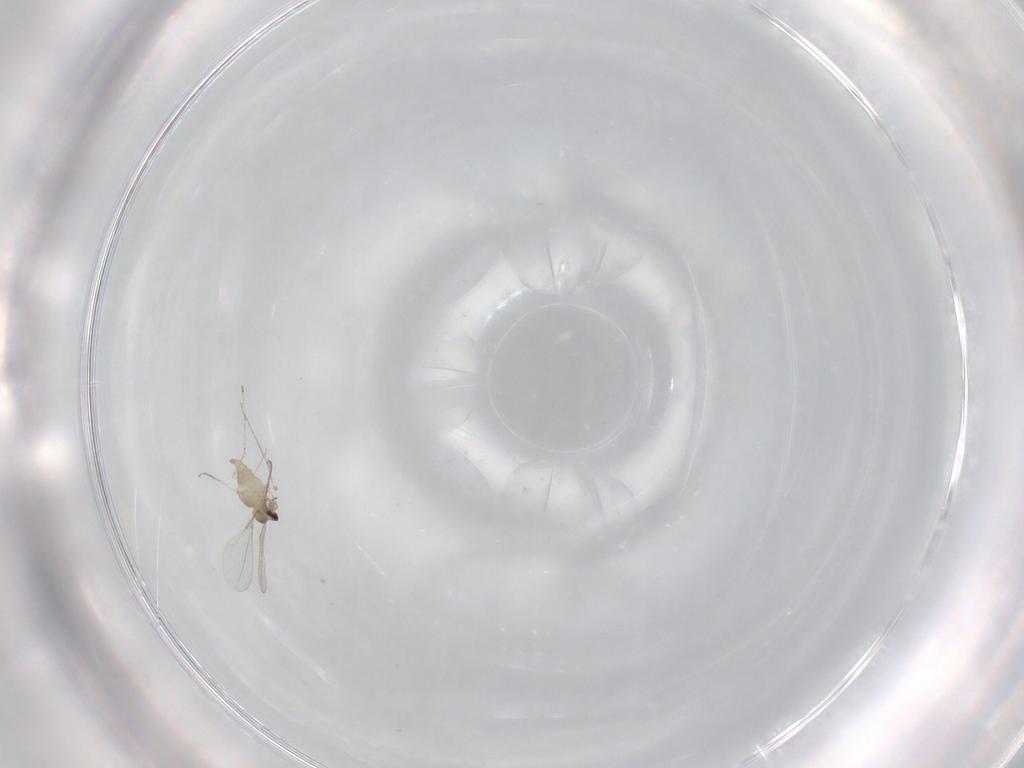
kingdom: Animalia
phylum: Arthropoda
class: Insecta
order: Diptera
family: Cecidomyiidae
